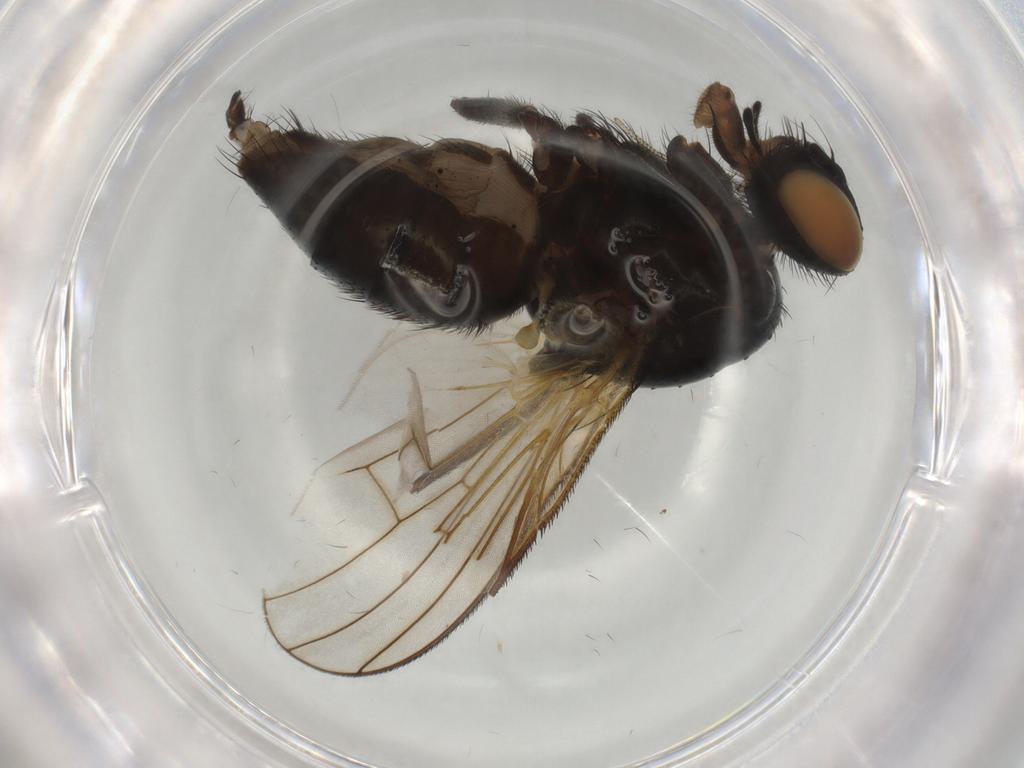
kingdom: Animalia
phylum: Arthropoda
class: Insecta
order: Diptera
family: Muscidae
